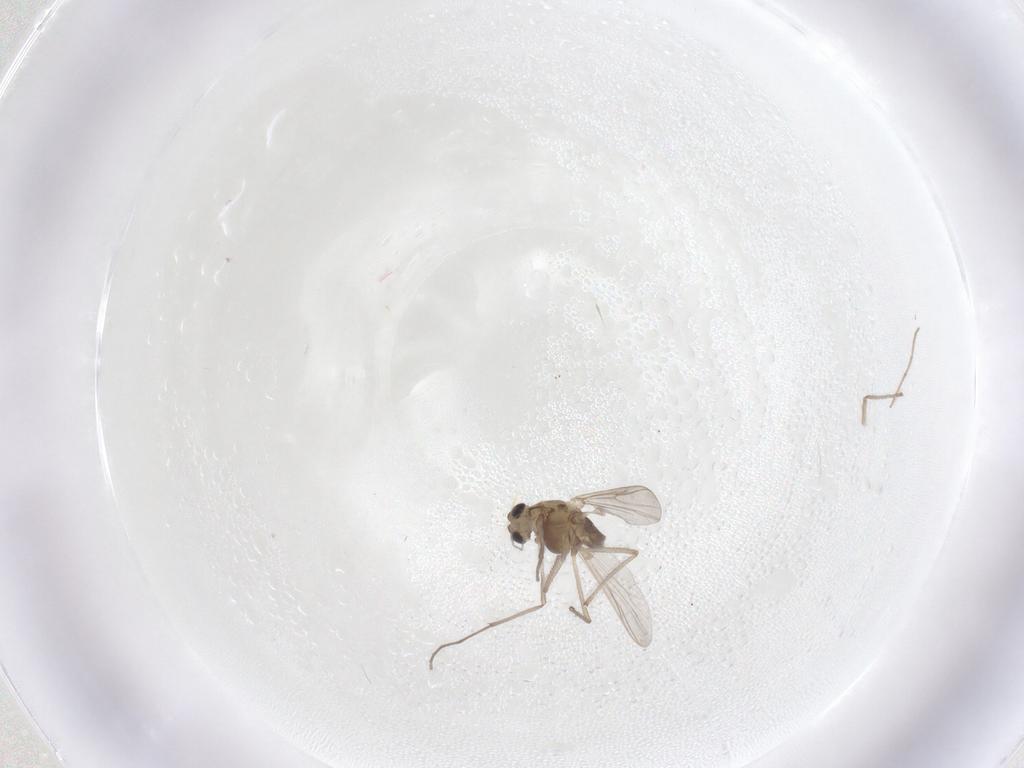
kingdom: Animalia
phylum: Arthropoda
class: Insecta
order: Diptera
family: Chironomidae
